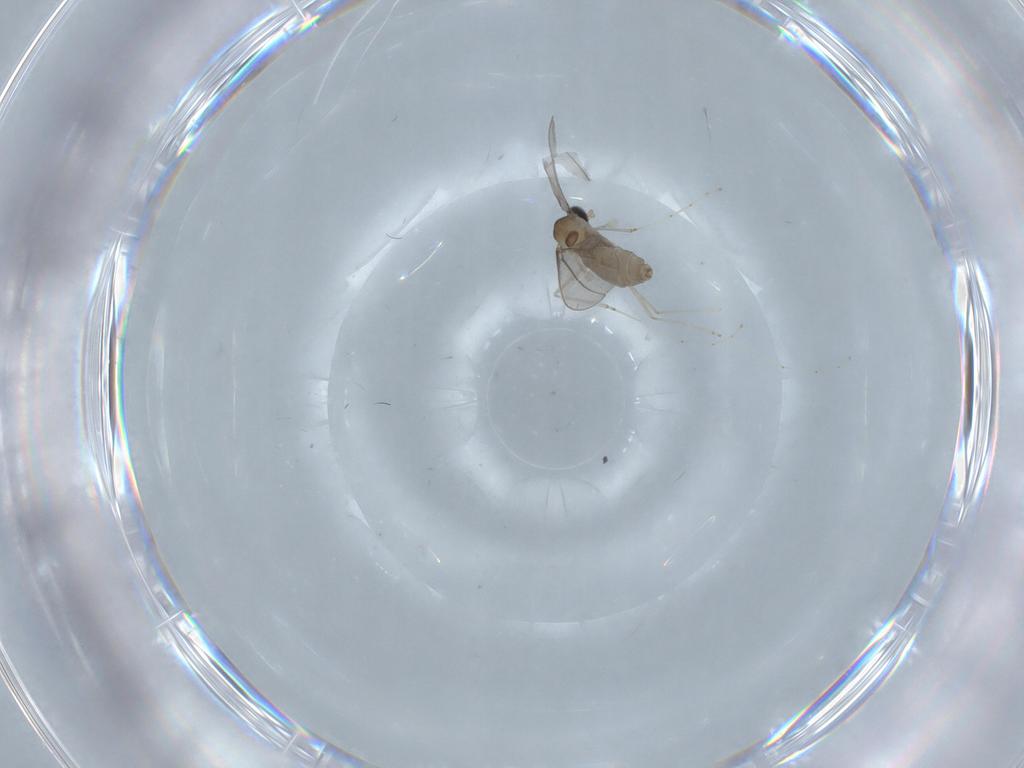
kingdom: Animalia
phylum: Arthropoda
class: Insecta
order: Diptera
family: Cecidomyiidae
